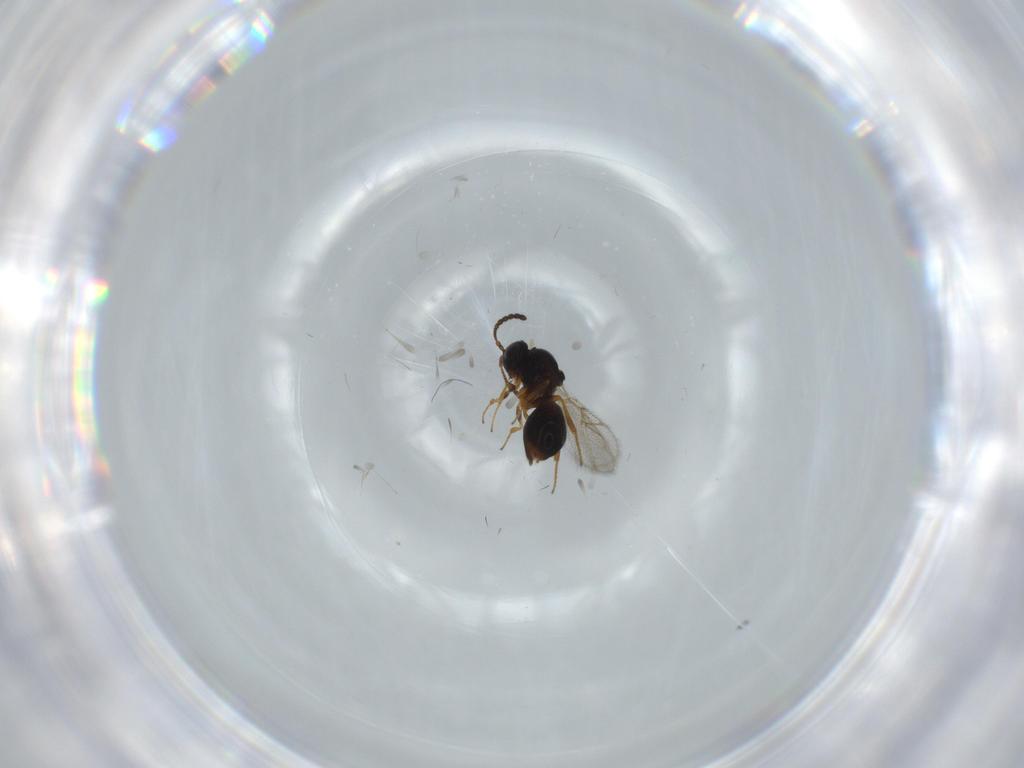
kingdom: Animalia
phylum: Arthropoda
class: Insecta
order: Hymenoptera
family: Figitidae
